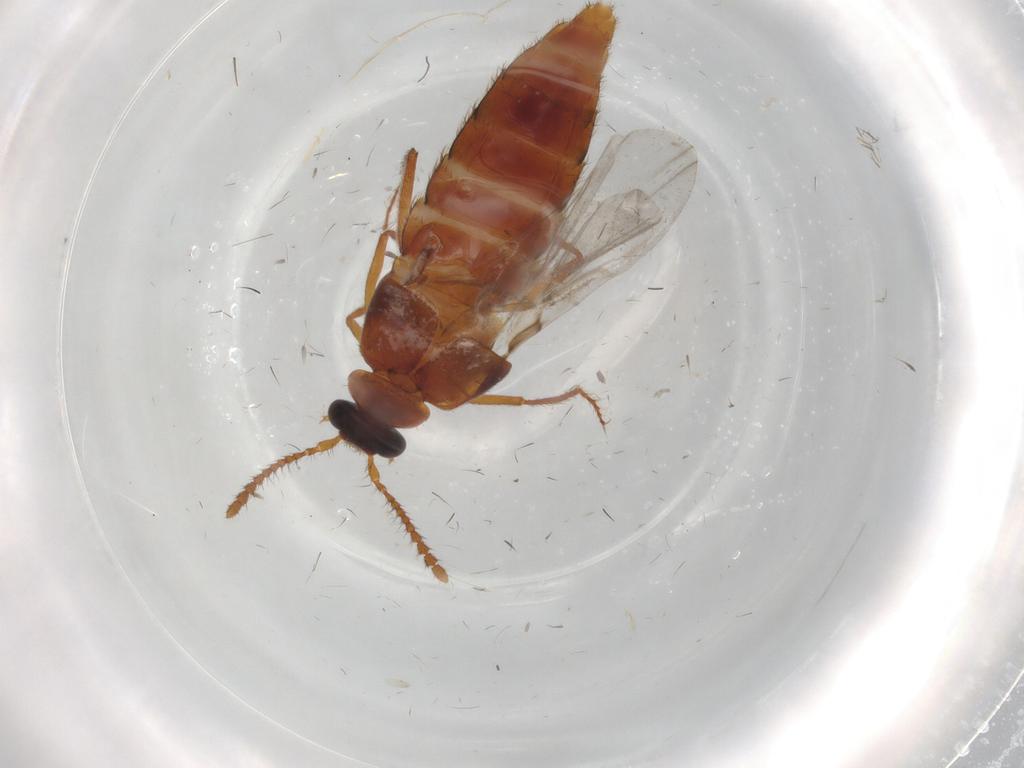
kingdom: Animalia
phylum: Arthropoda
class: Insecta
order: Coleoptera
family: Staphylinidae
